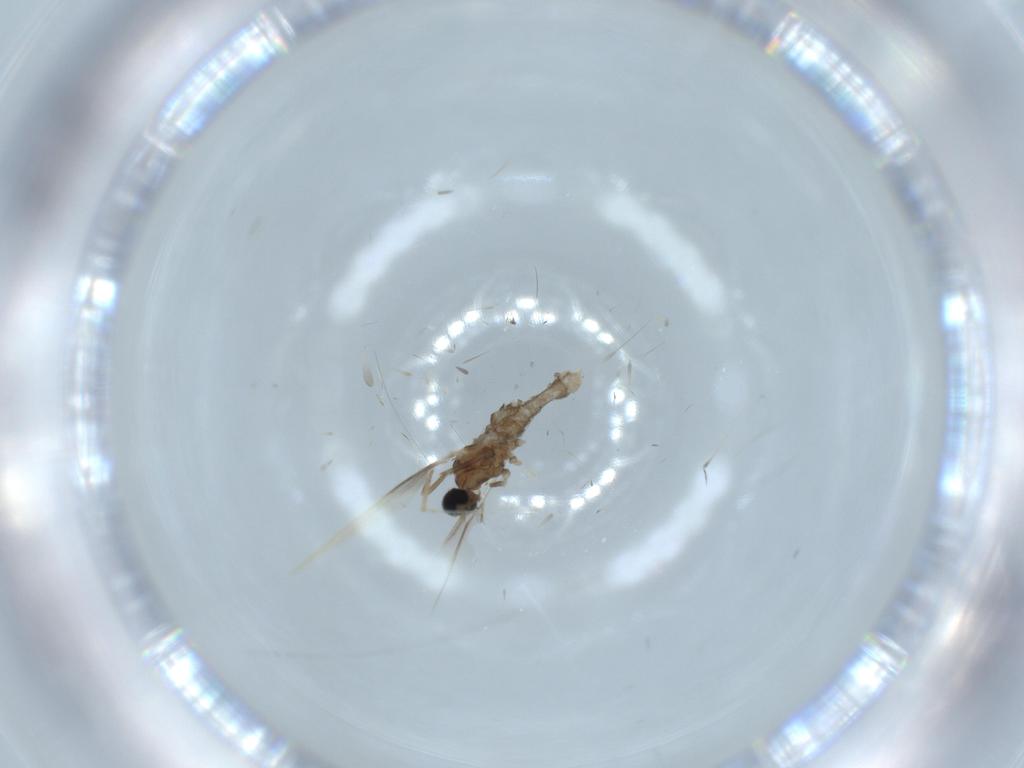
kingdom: Animalia
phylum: Arthropoda
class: Insecta
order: Diptera
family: Cecidomyiidae
